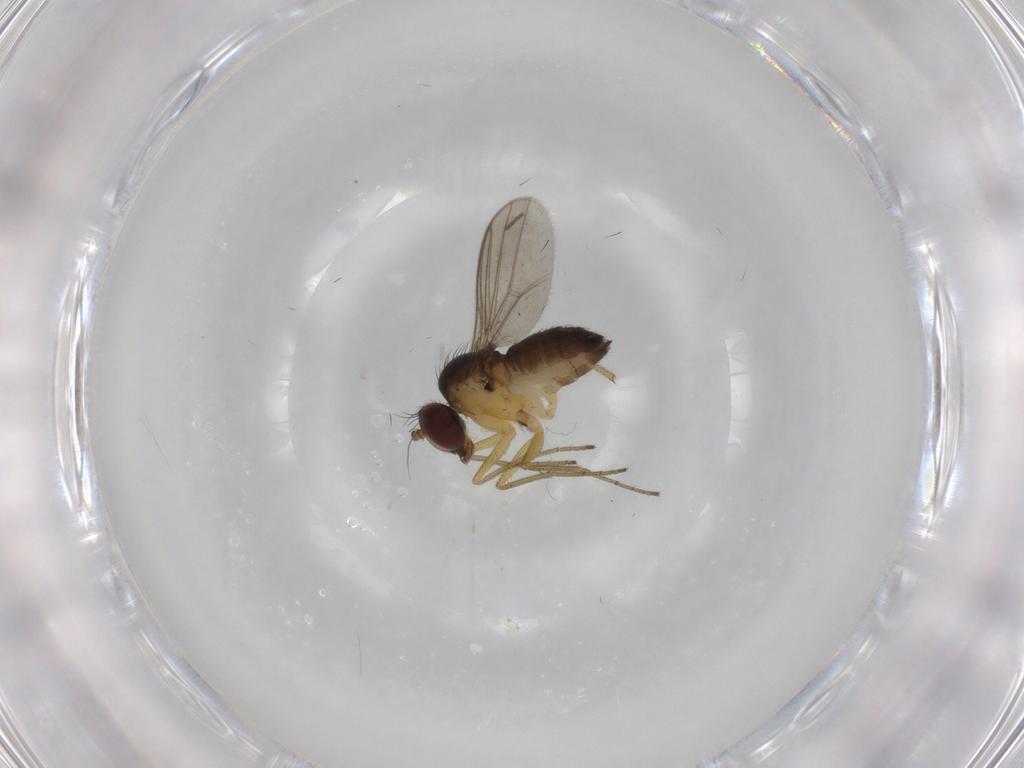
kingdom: Animalia
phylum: Arthropoda
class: Insecta
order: Diptera
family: Dolichopodidae
